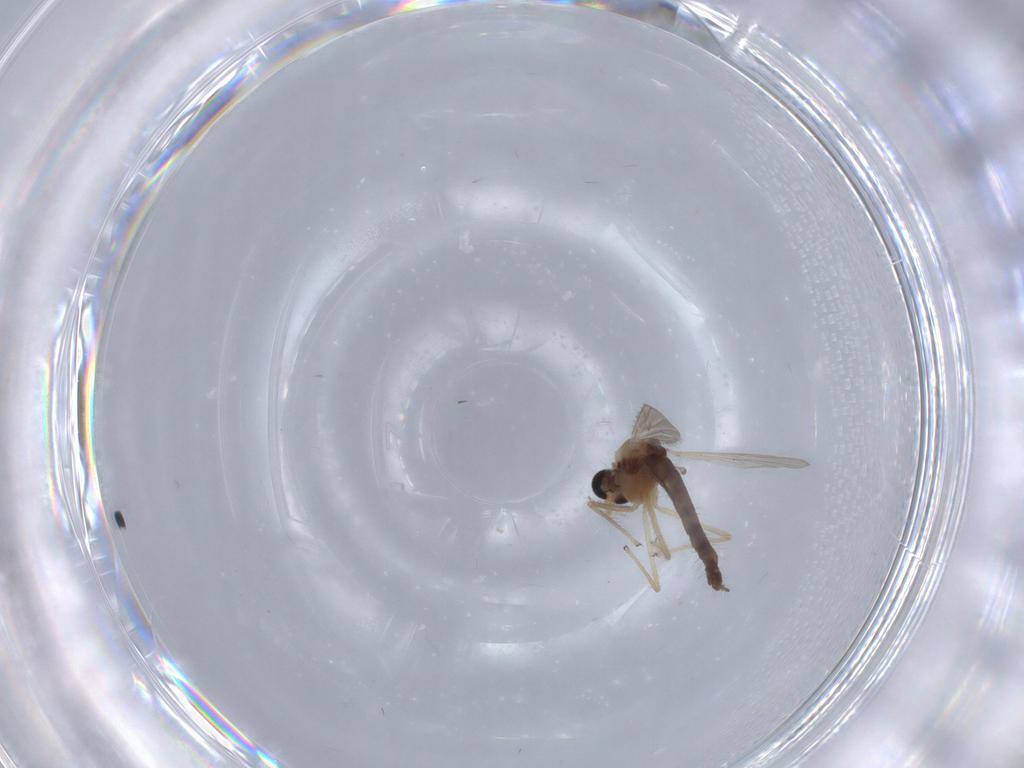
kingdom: Animalia
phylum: Arthropoda
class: Insecta
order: Diptera
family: Chironomidae
